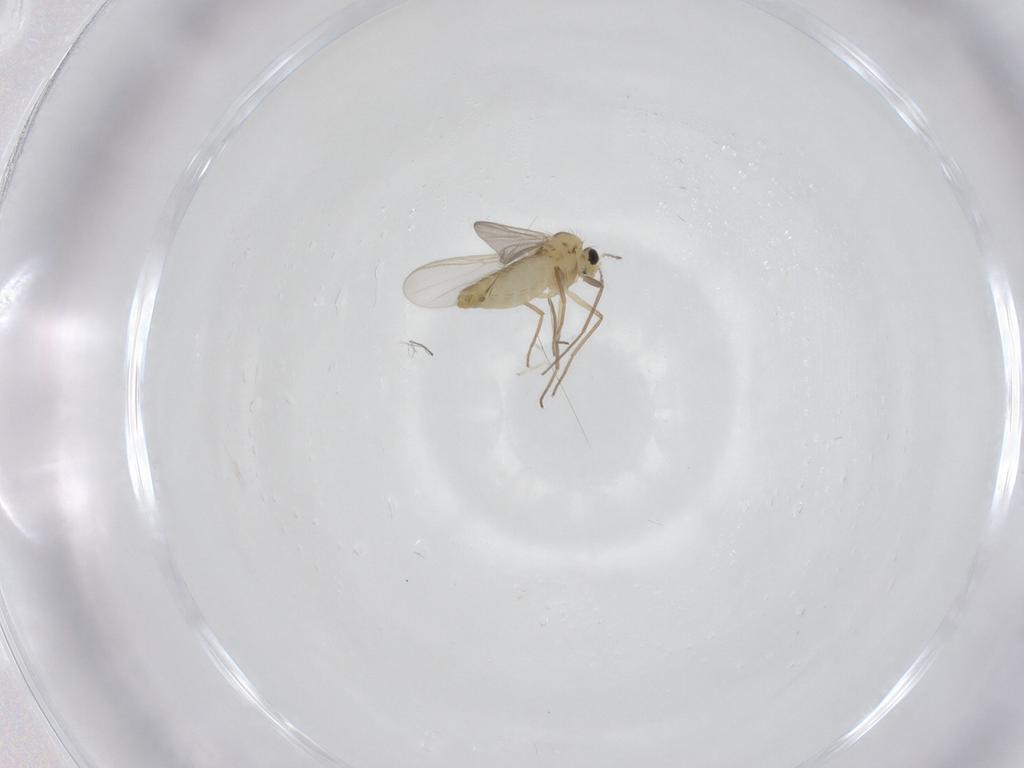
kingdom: Animalia
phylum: Arthropoda
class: Insecta
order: Diptera
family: Chironomidae
